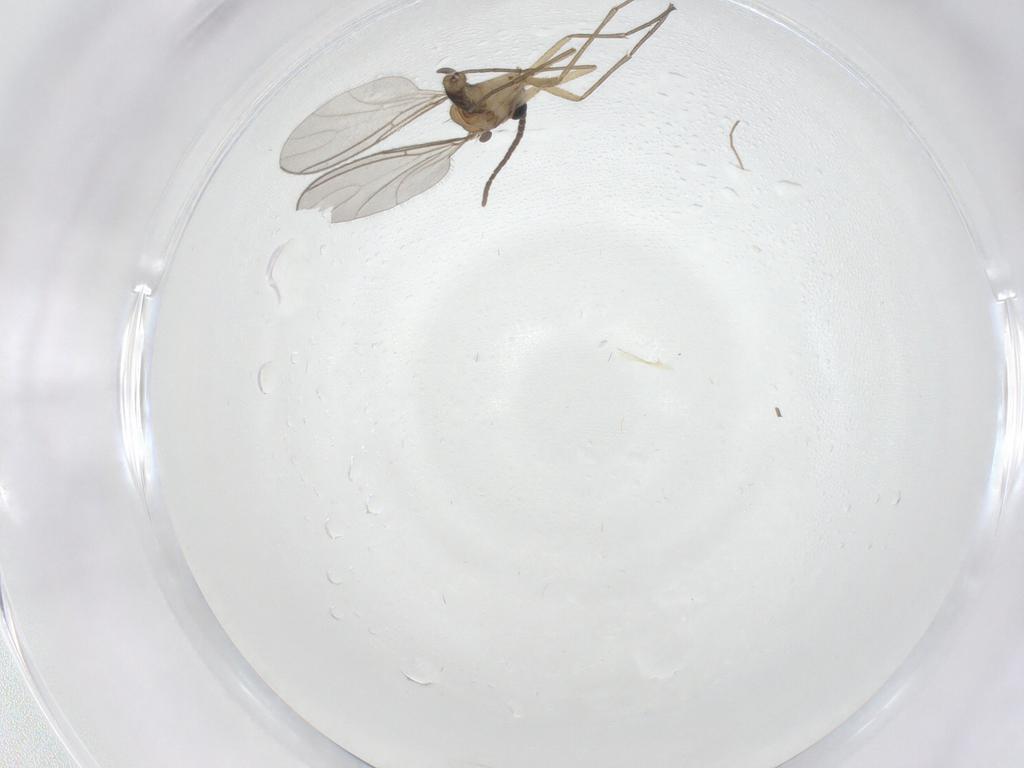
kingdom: Animalia
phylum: Arthropoda
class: Insecta
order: Diptera
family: Sciaridae
